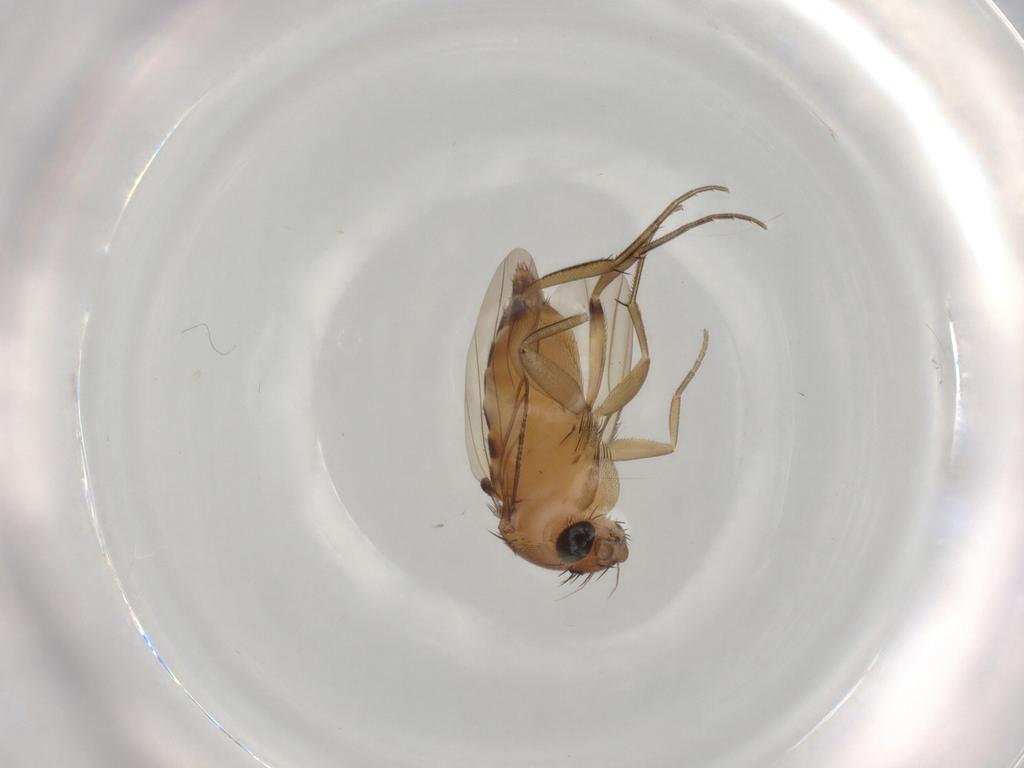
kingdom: Animalia
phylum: Arthropoda
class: Insecta
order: Diptera
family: Phoridae
